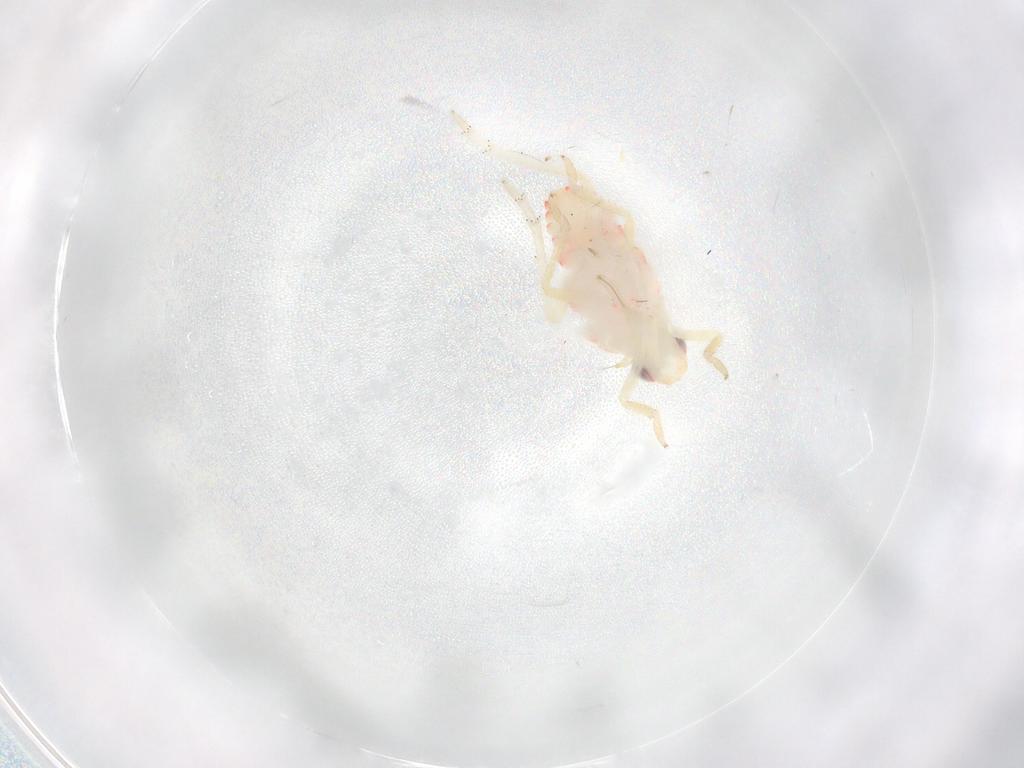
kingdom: Animalia
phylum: Arthropoda
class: Insecta
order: Hemiptera
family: Tropiduchidae
